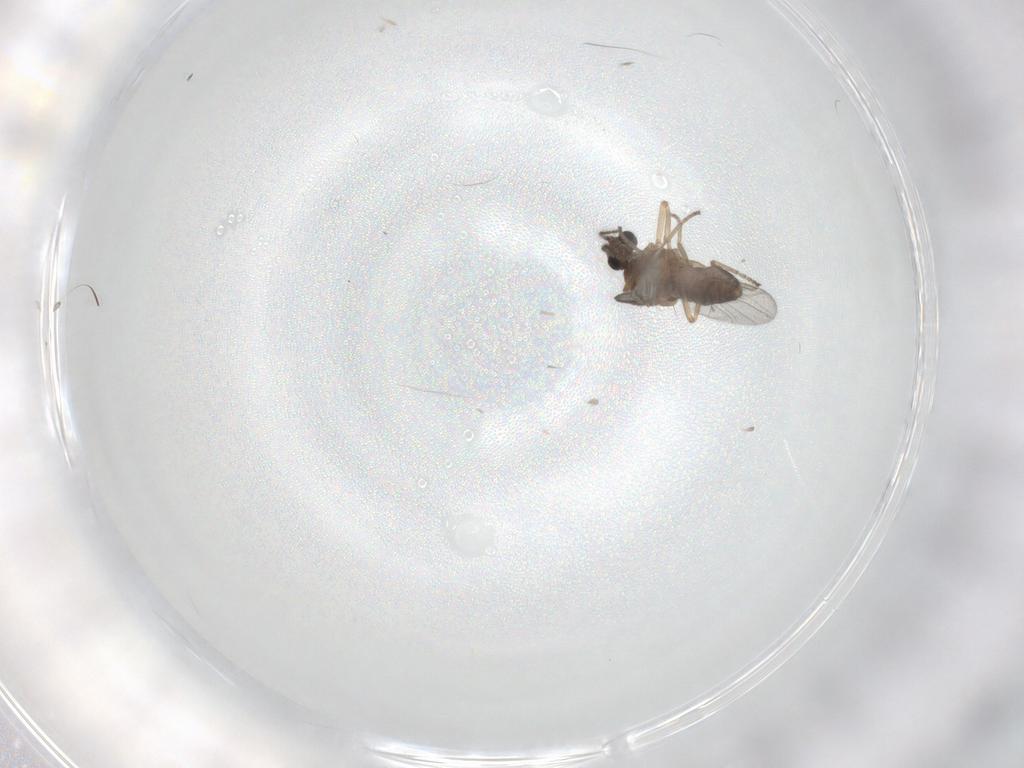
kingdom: Animalia
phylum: Arthropoda
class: Insecta
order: Diptera
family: Ceratopogonidae
